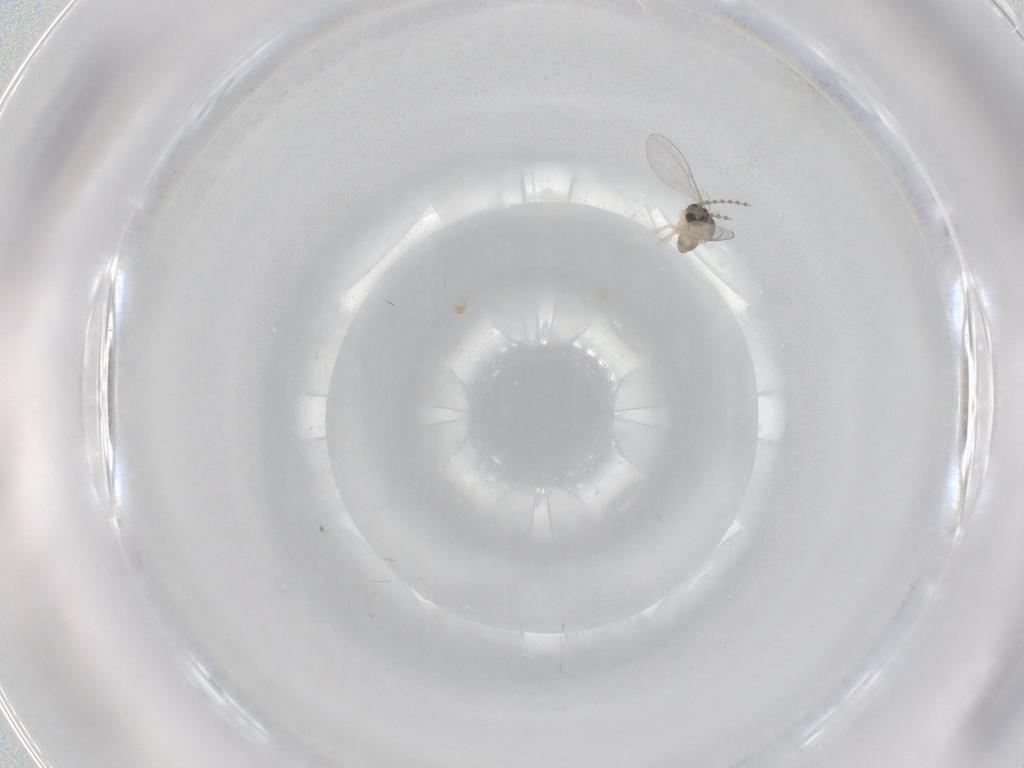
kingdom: Animalia
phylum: Arthropoda
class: Insecta
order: Diptera
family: Cecidomyiidae
